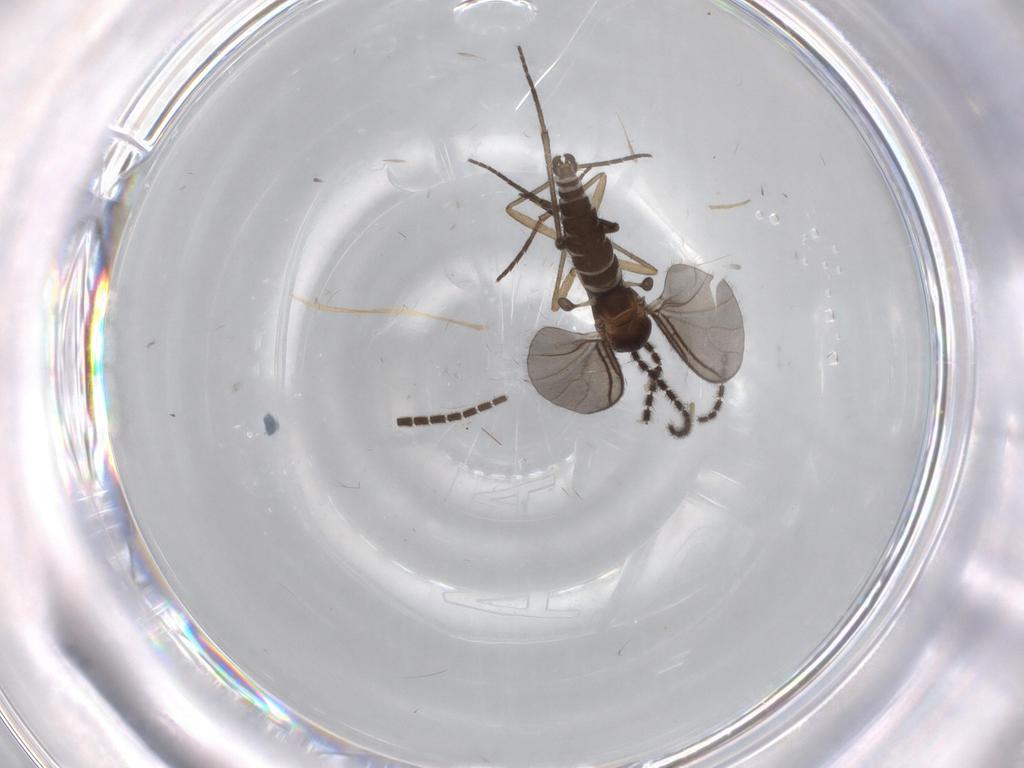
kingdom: Animalia
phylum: Arthropoda
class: Insecta
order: Diptera
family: Sciaridae
